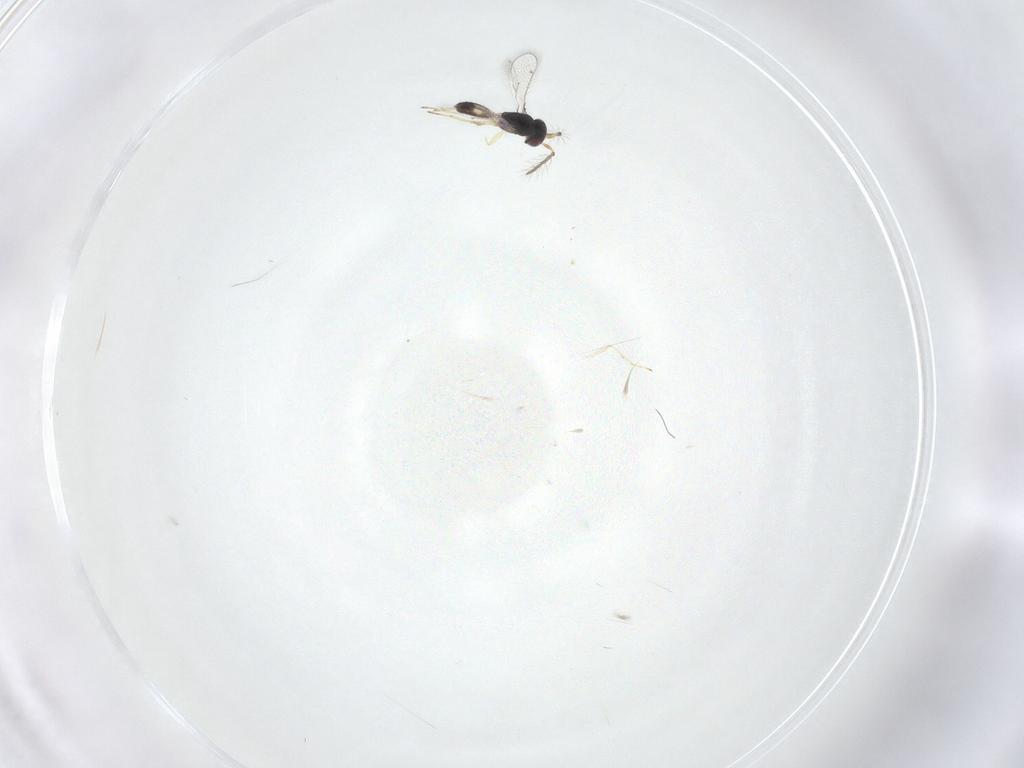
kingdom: Animalia
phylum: Arthropoda
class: Insecta
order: Hymenoptera
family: Eulophidae
